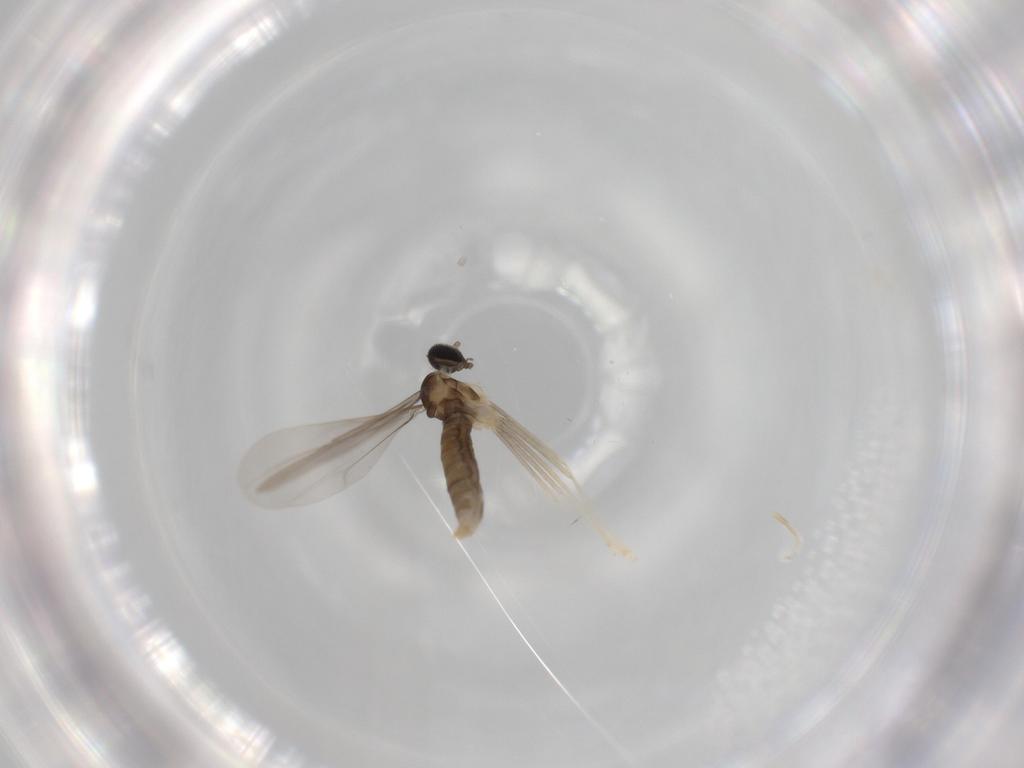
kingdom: Animalia
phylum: Arthropoda
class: Insecta
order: Diptera
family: Cecidomyiidae
